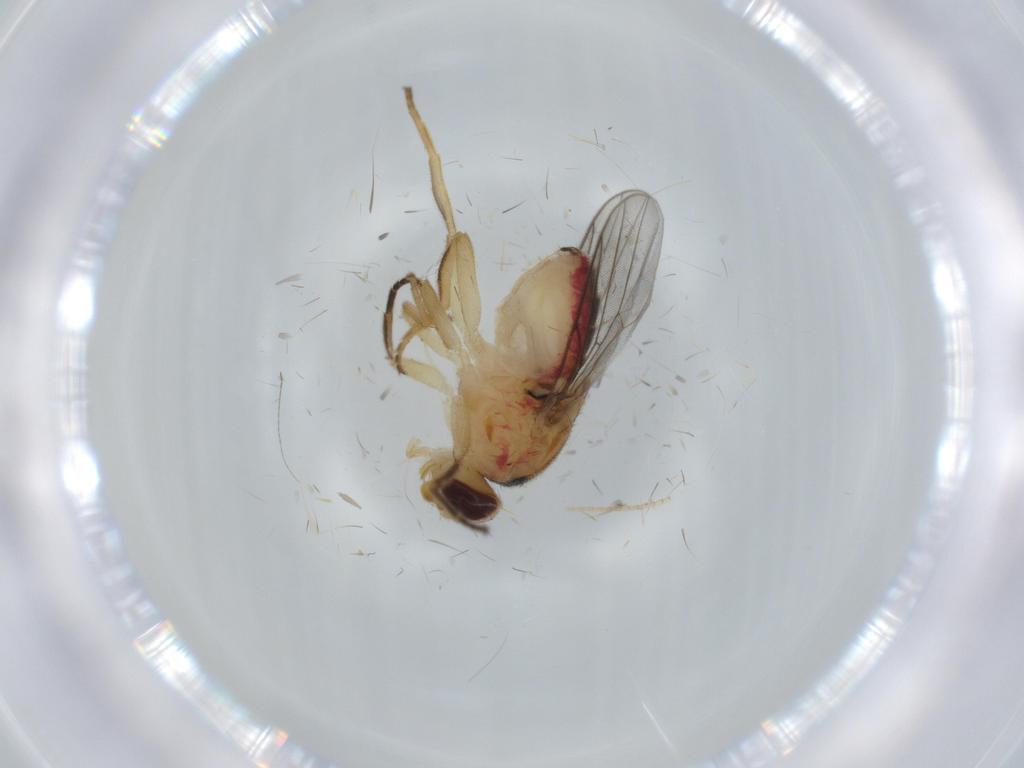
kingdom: Animalia
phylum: Arthropoda
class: Insecta
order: Diptera
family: Chloropidae
